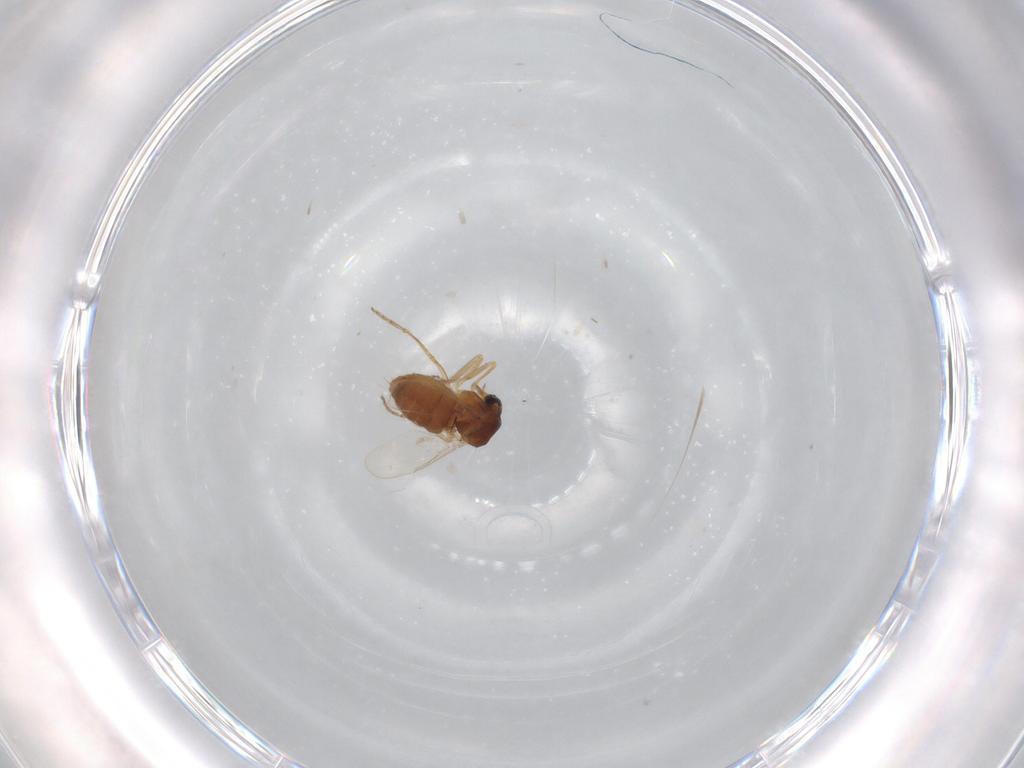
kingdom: Animalia
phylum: Arthropoda
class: Insecta
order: Diptera
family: Ceratopogonidae
